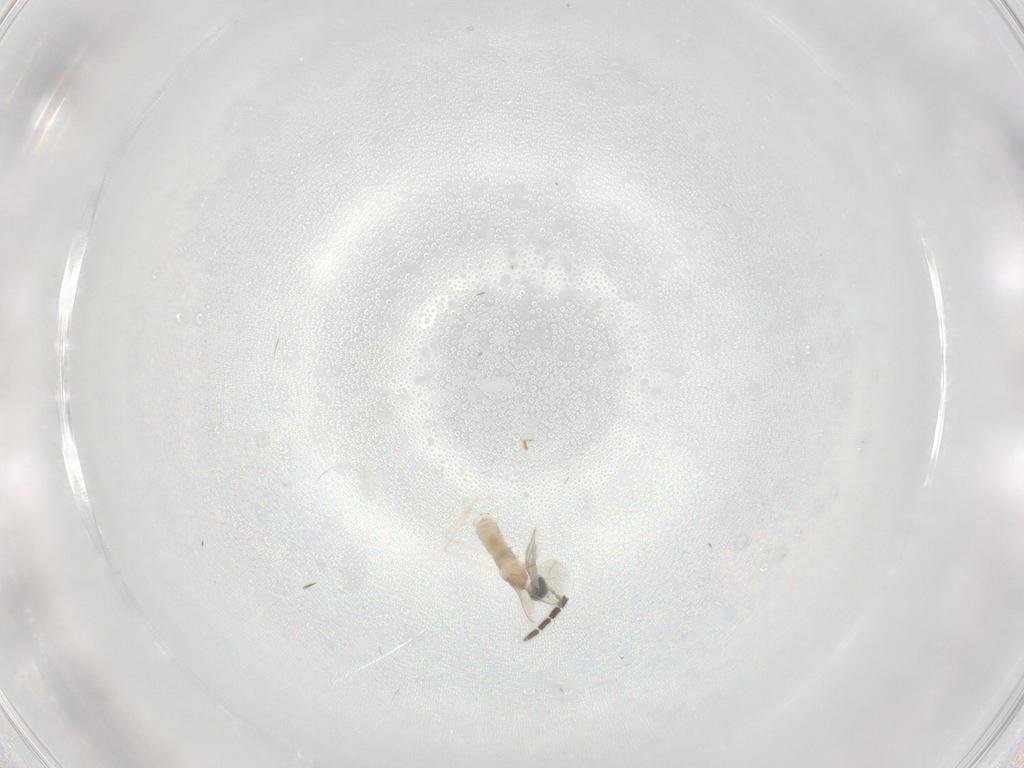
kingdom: Animalia
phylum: Arthropoda
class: Insecta
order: Diptera
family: Sciaridae
